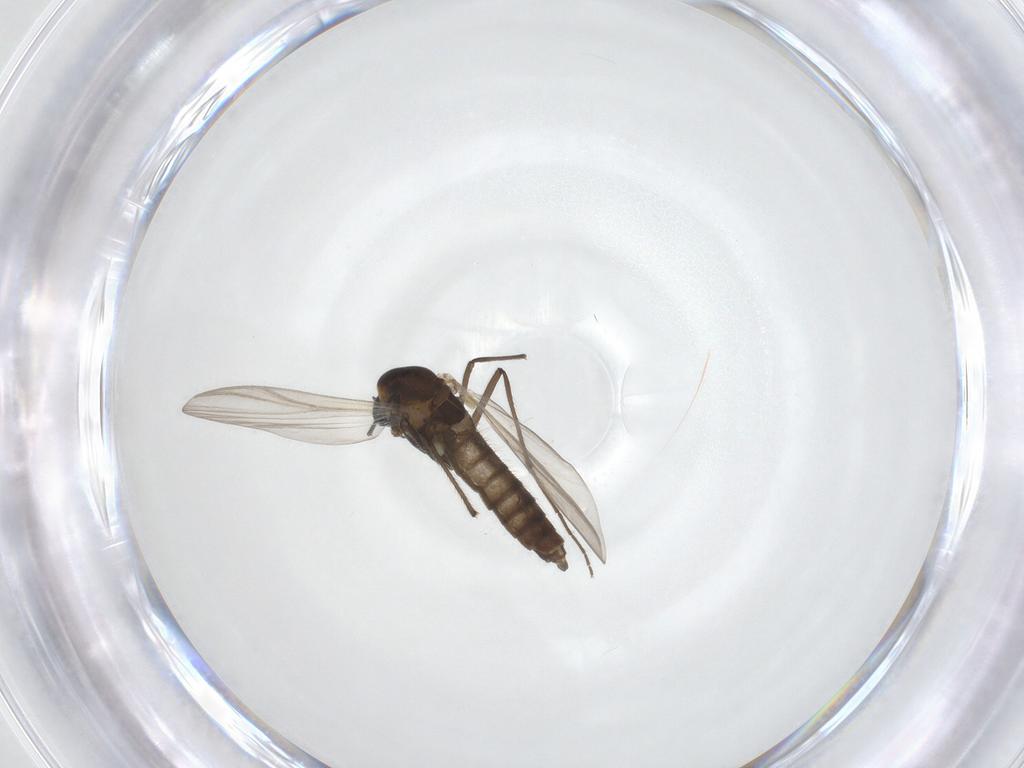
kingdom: Animalia
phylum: Arthropoda
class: Insecta
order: Diptera
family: Chironomidae
